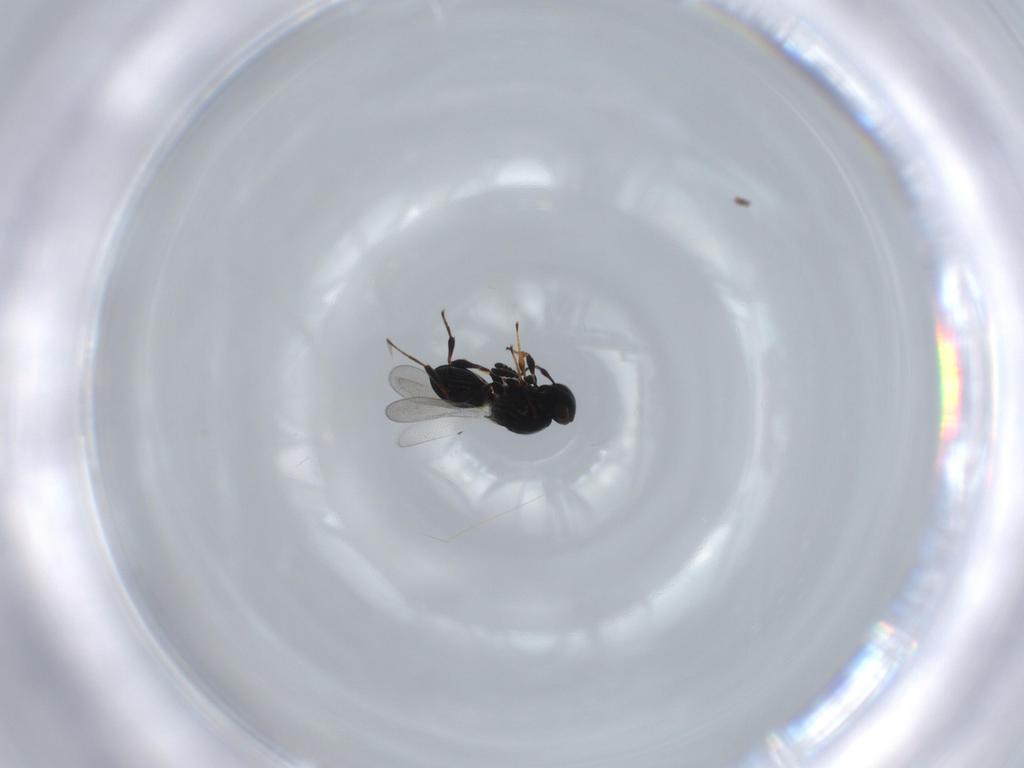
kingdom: Animalia
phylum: Arthropoda
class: Insecta
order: Hymenoptera
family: Platygastridae
